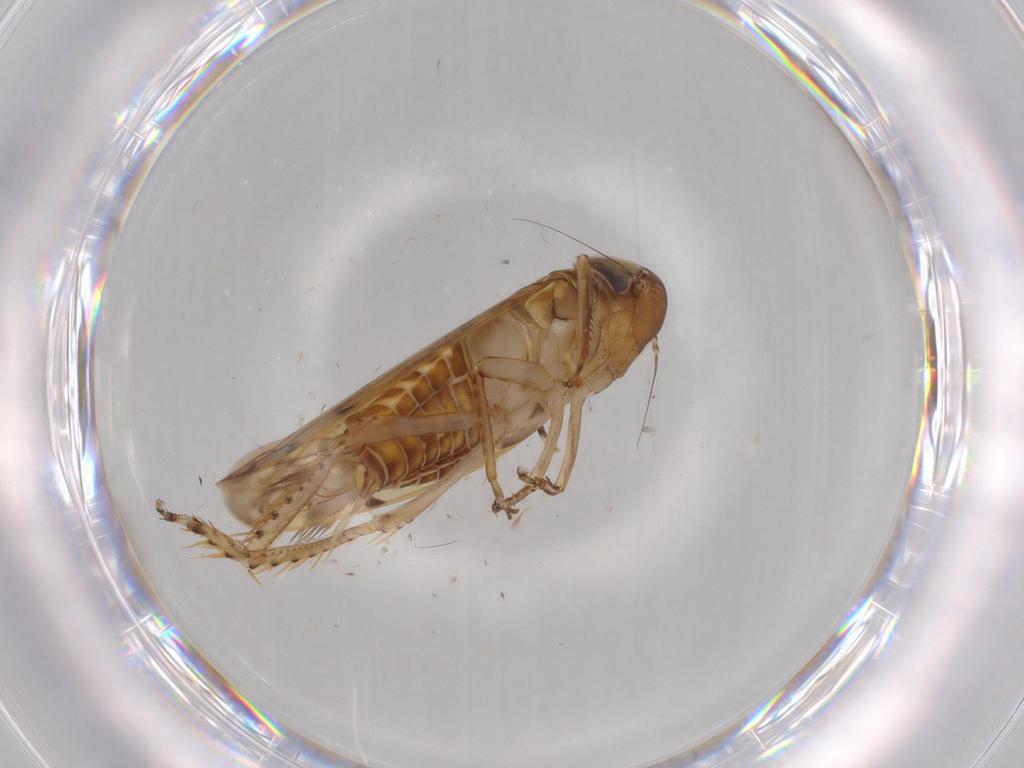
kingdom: Animalia
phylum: Arthropoda
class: Insecta
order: Hemiptera
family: Cicadellidae
